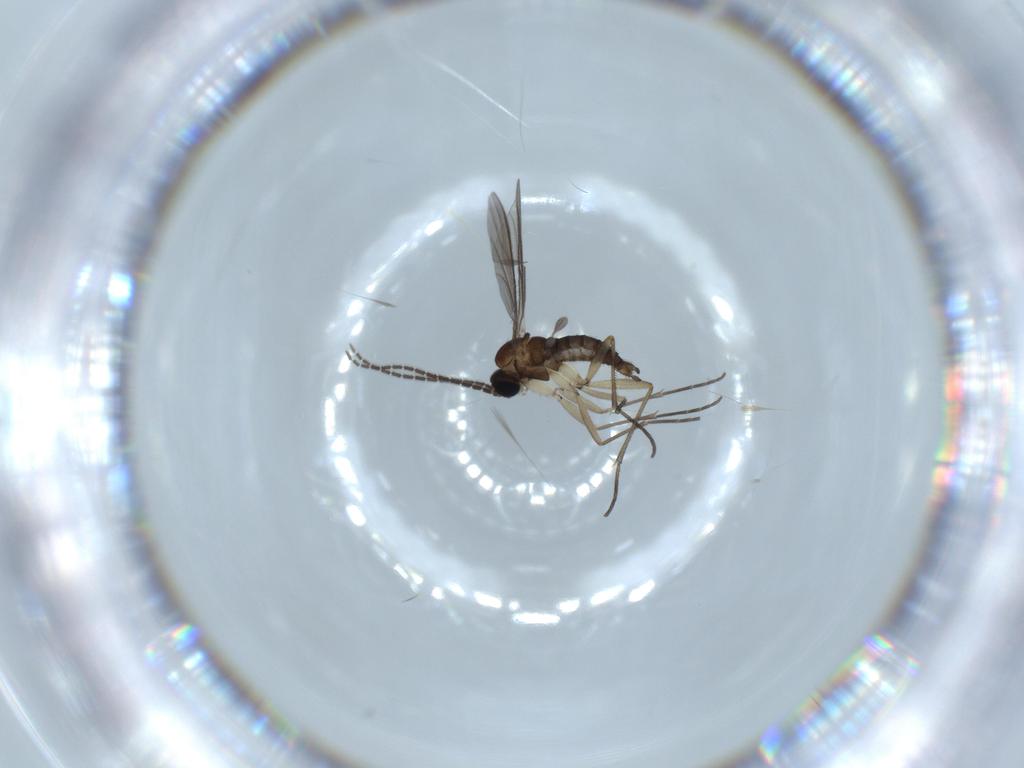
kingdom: Animalia
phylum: Arthropoda
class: Insecta
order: Diptera
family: Sciaridae
